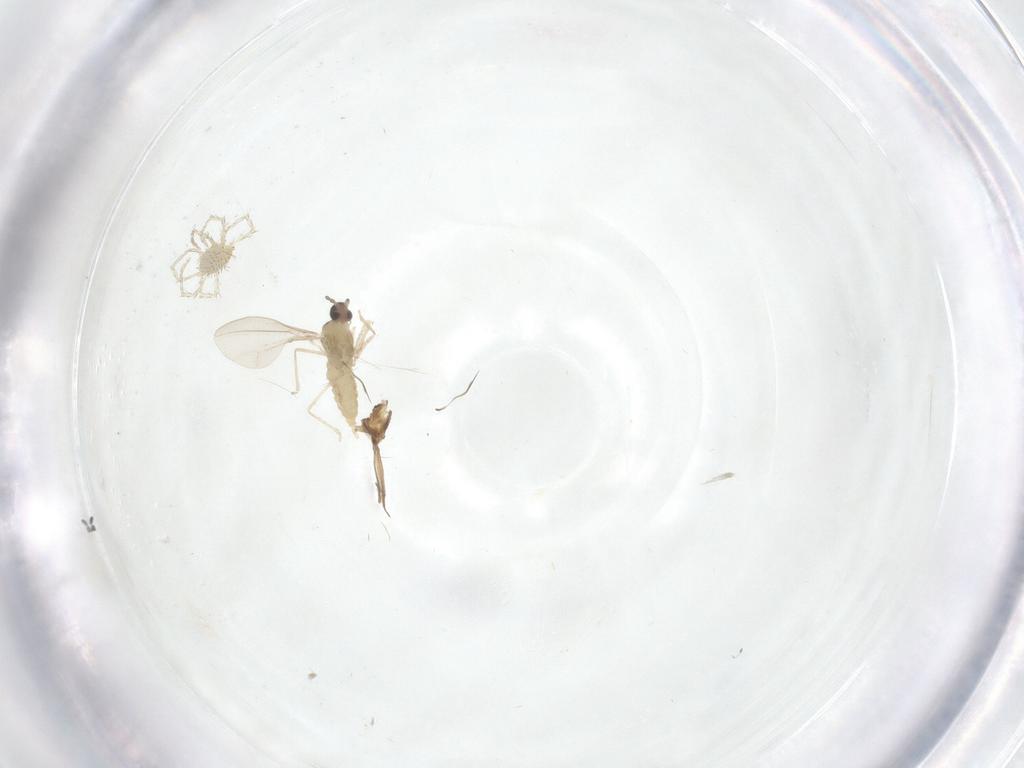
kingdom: Animalia
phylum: Arthropoda
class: Insecta
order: Diptera
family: Cecidomyiidae
